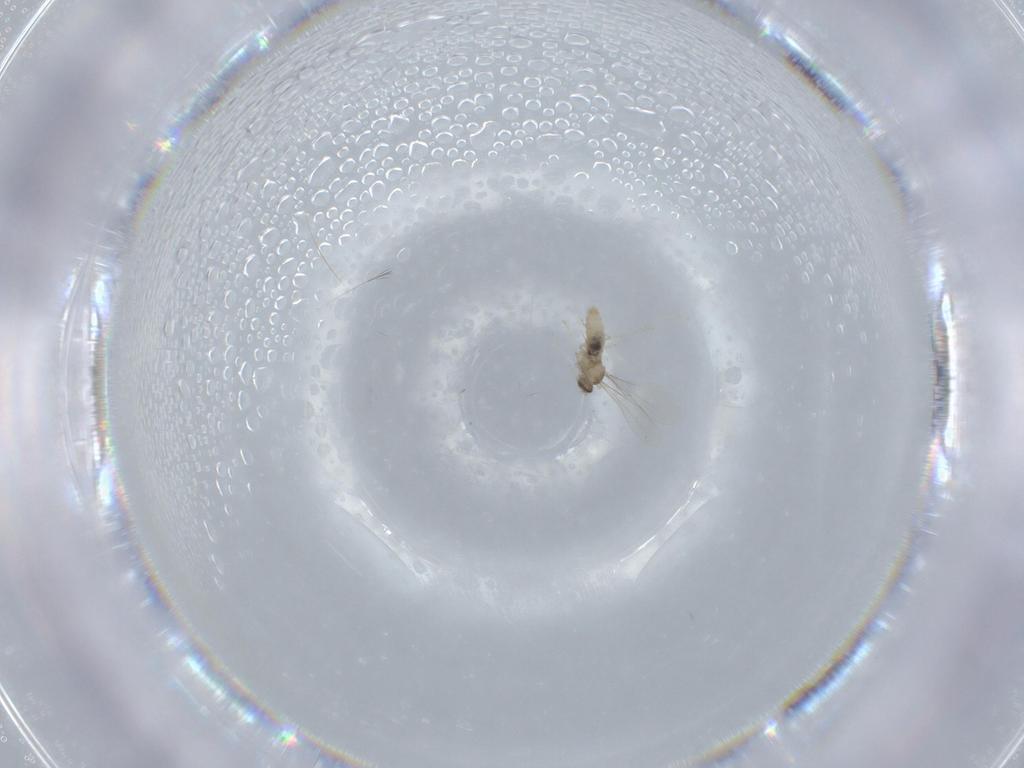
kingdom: Animalia
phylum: Arthropoda
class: Insecta
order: Diptera
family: Cecidomyiidae
